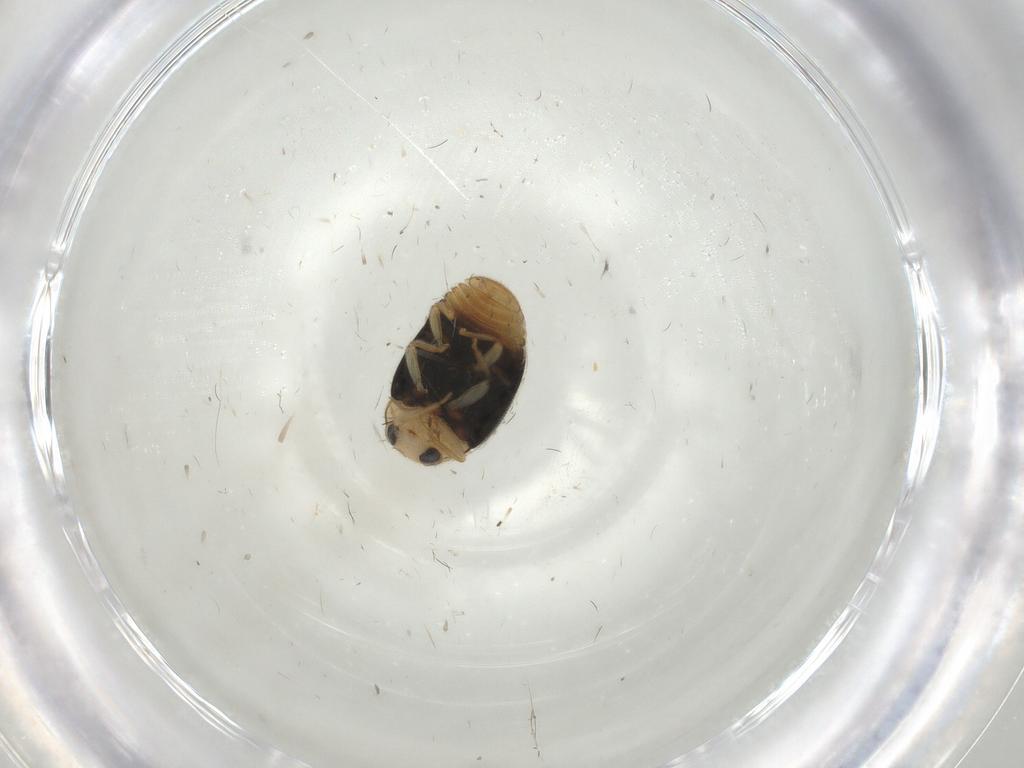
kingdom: Animalia
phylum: Arthropoda
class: Insecta
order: Coleoptera
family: Coccinellidae
